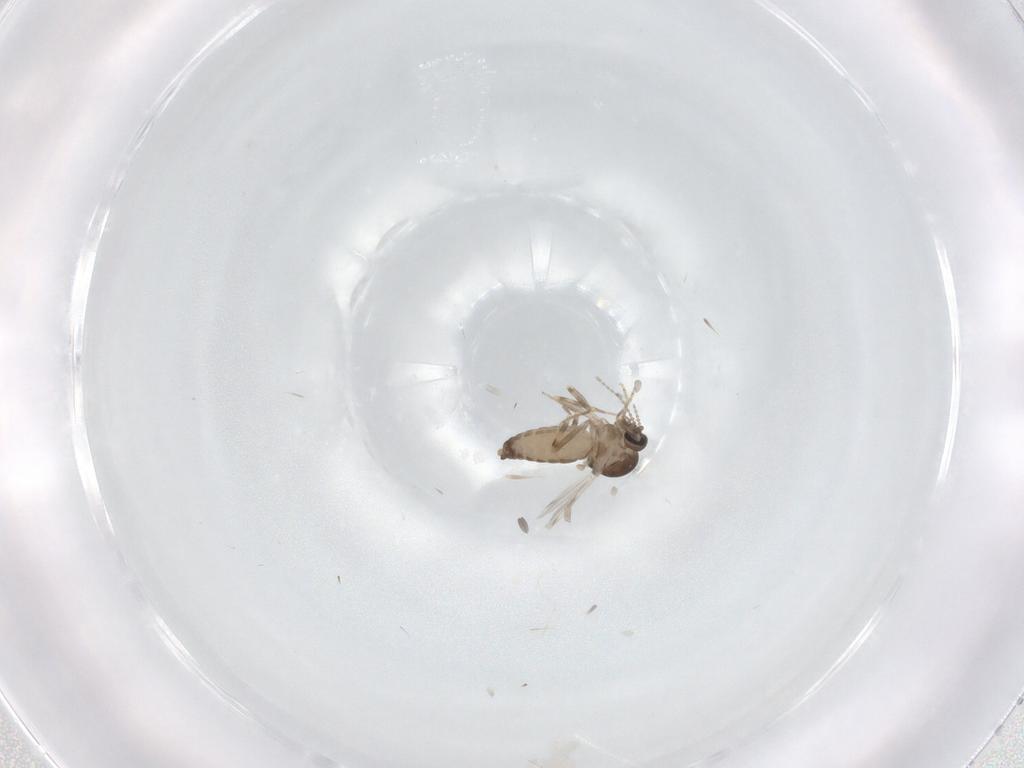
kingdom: Animalia
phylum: Arthropoda
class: Insecta
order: Diptera
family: Ceratopogonidae
